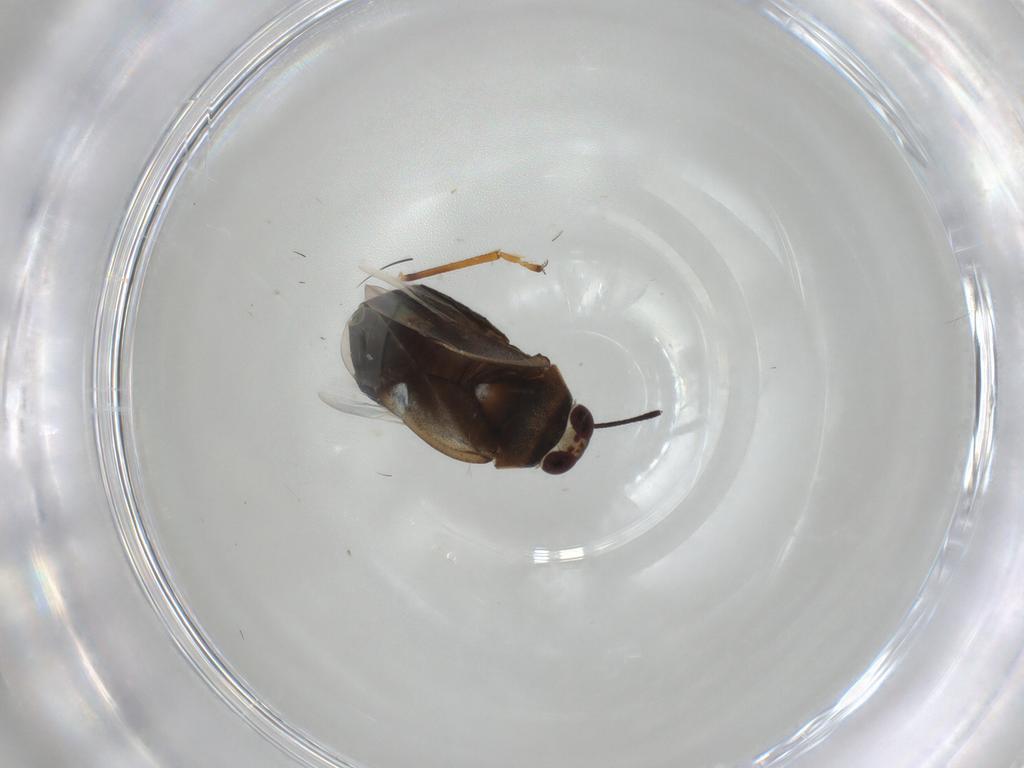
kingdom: Animalia
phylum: Arthropoda
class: Insecta
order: Hemiptera
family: Miridae
